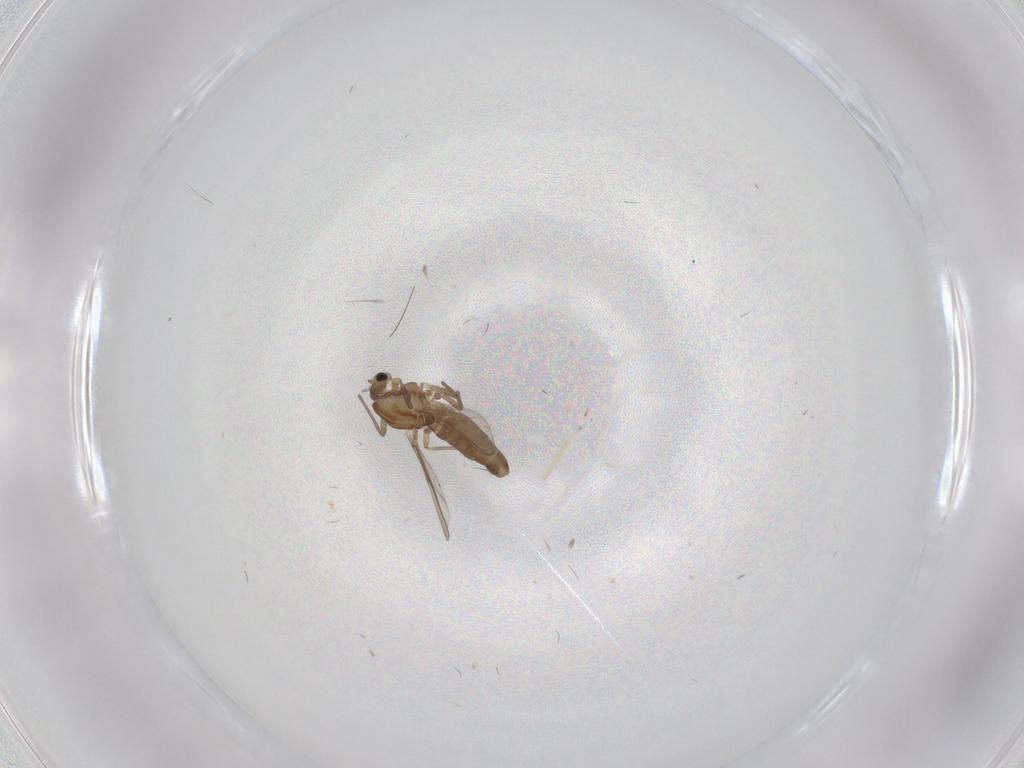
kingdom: Animalia
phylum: Arthropoda
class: Insecta
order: Diptera
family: Chironomidae
